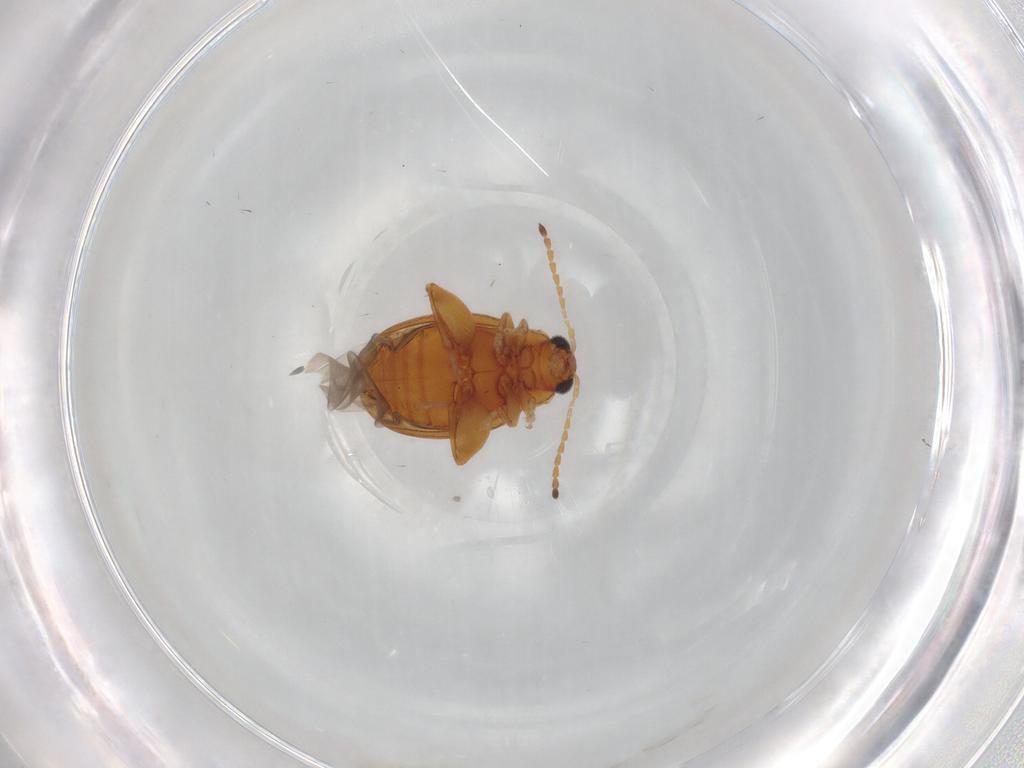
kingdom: Animalia
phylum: Arthropoda
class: Insecta
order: Coleoptera
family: Chrysomelidae
